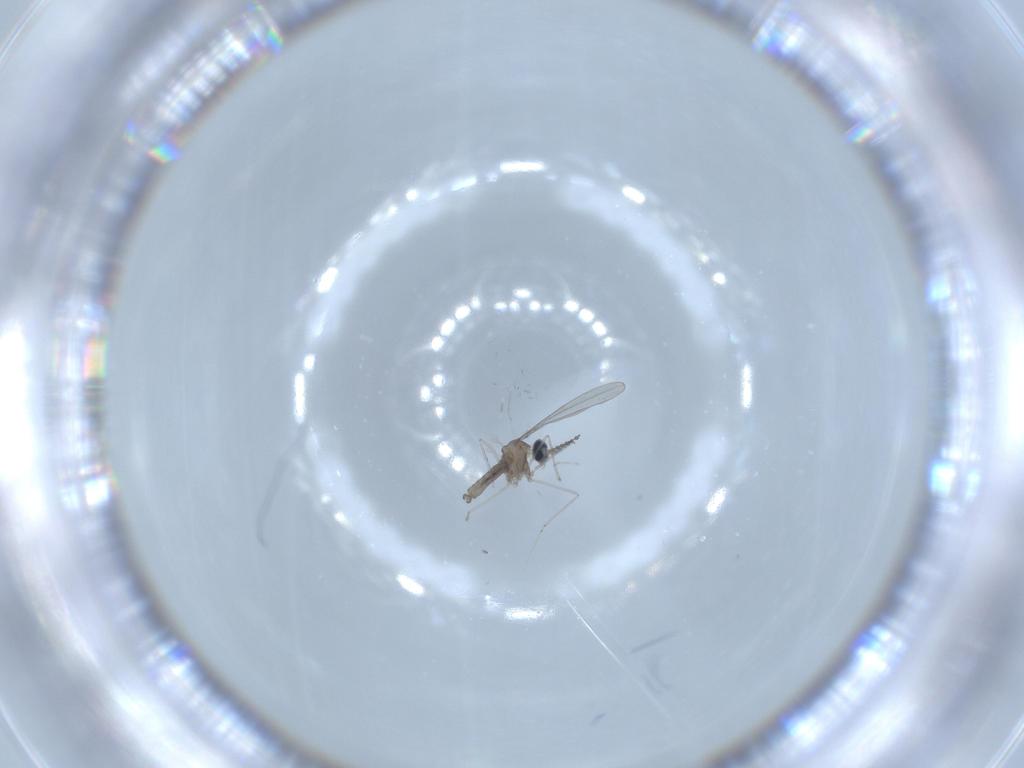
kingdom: Animalia
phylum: Arthropoda
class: Insecta
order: Diptera
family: Cecidomyiidae
